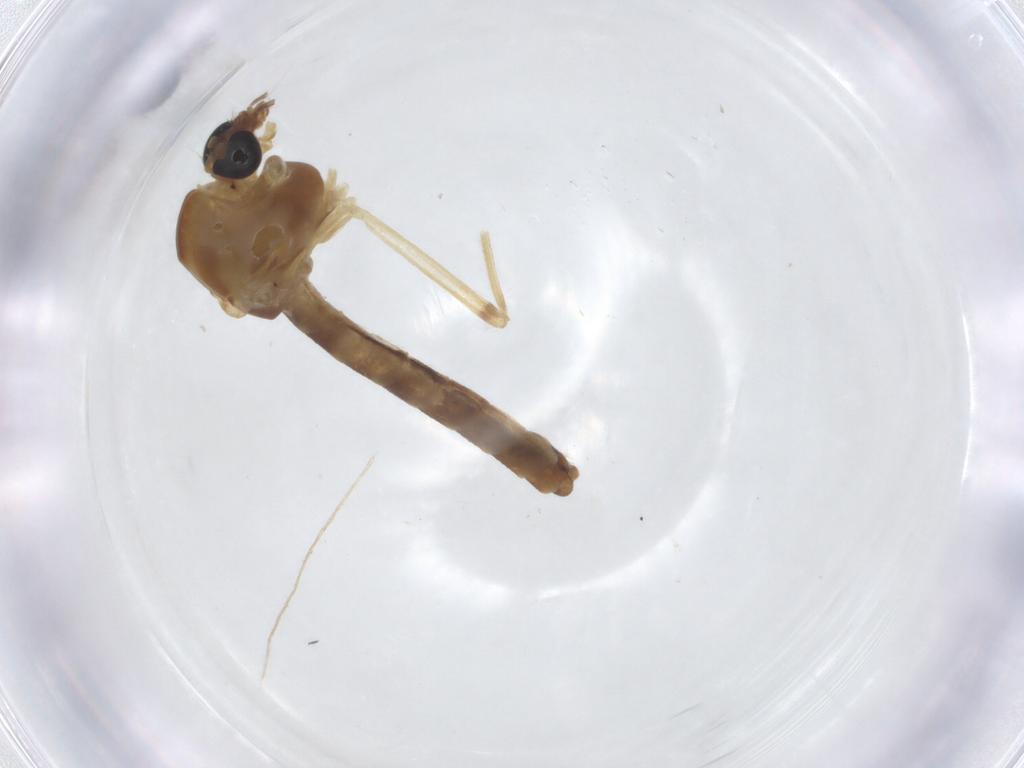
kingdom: Animalia
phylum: Arthropoda
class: Insecta
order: Diptera
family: Chironomidae
